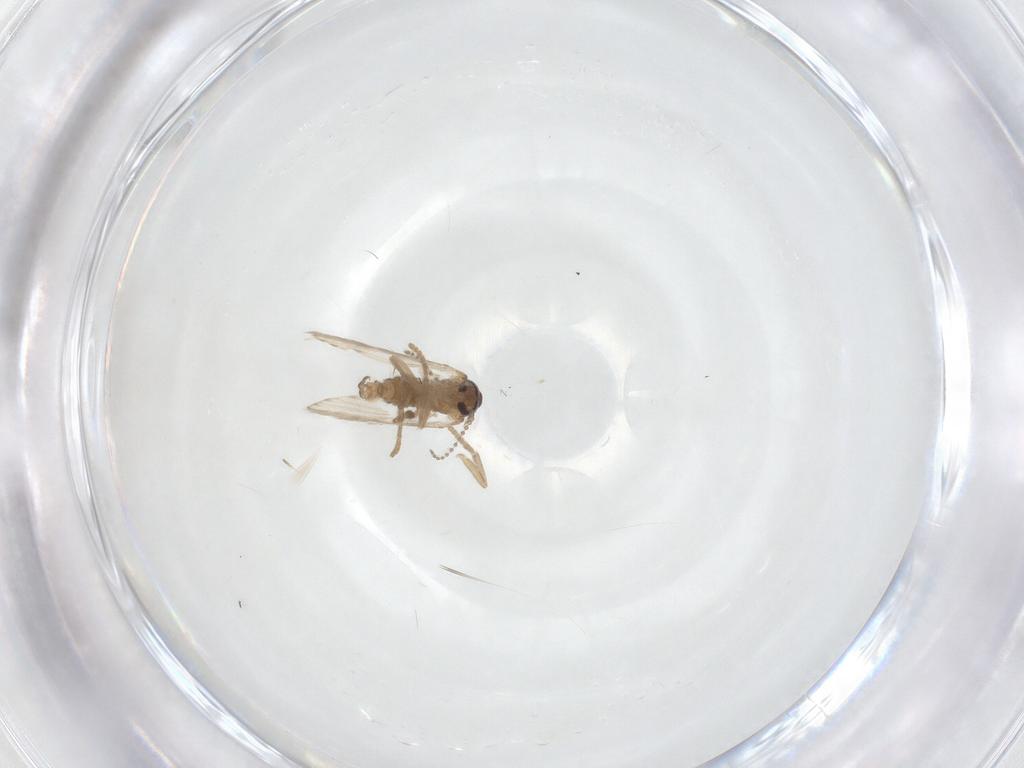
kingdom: Animalia
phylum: Arthropoda
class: Insecta
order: Diptera
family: Psychodidae
